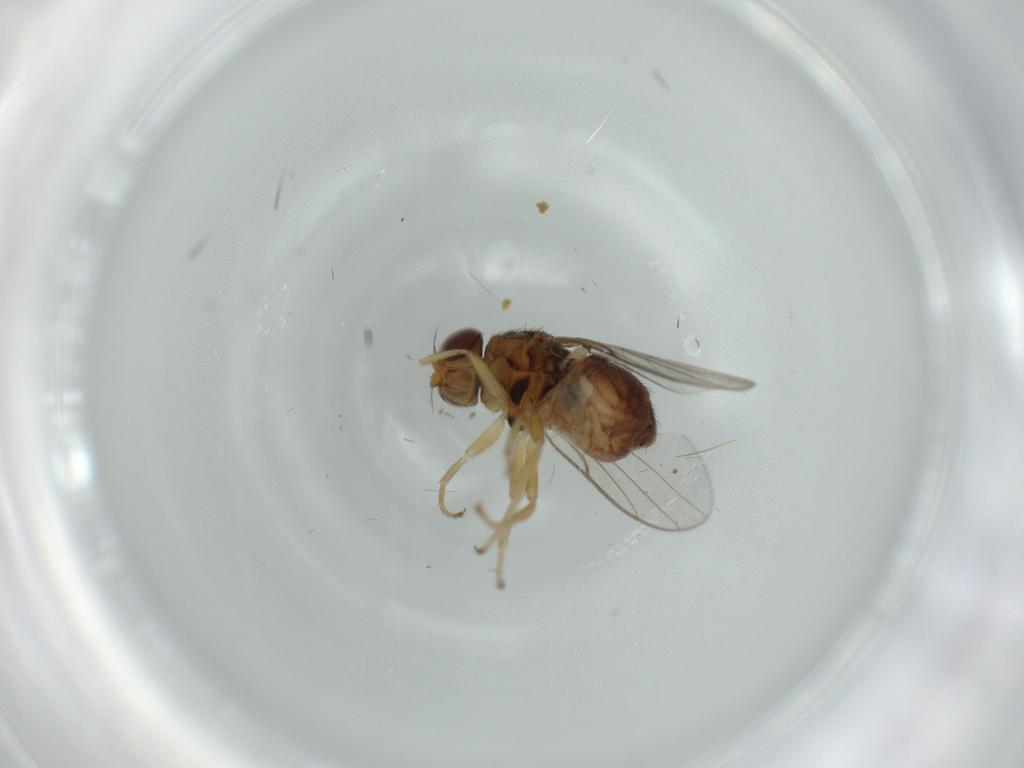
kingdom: Animalia
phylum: Arthropoda
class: Insecta
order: Diptera
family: Chloropidae
